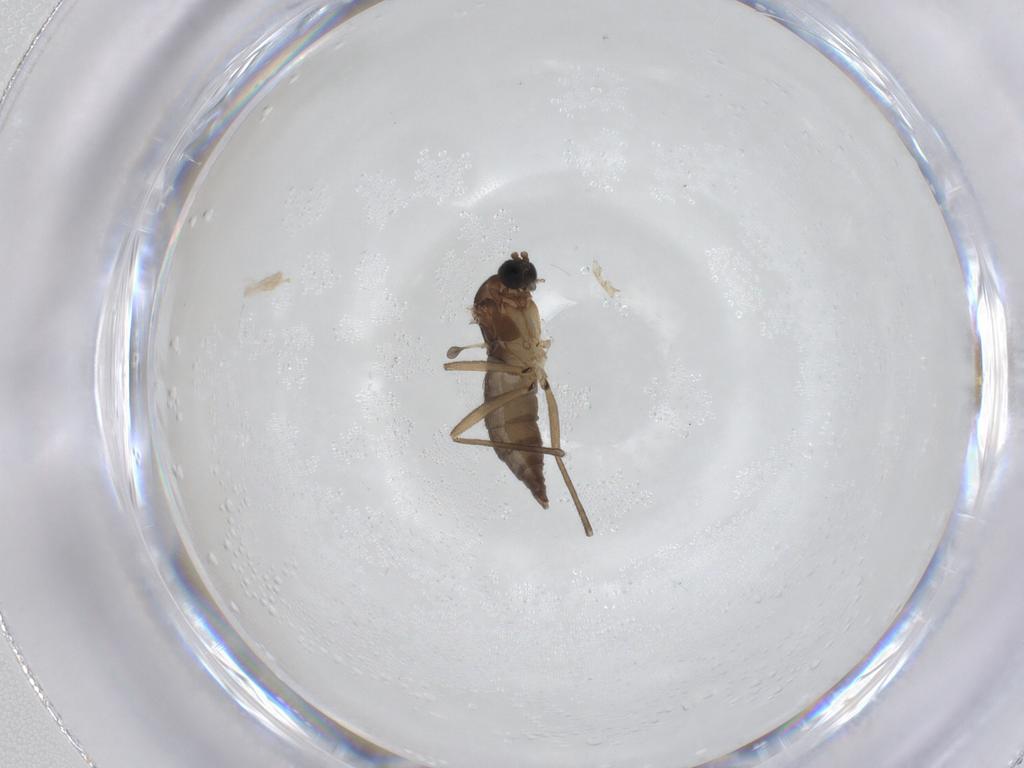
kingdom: Animalia
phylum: Arthropoda
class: Insecta
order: Diptera
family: Sciaridae
